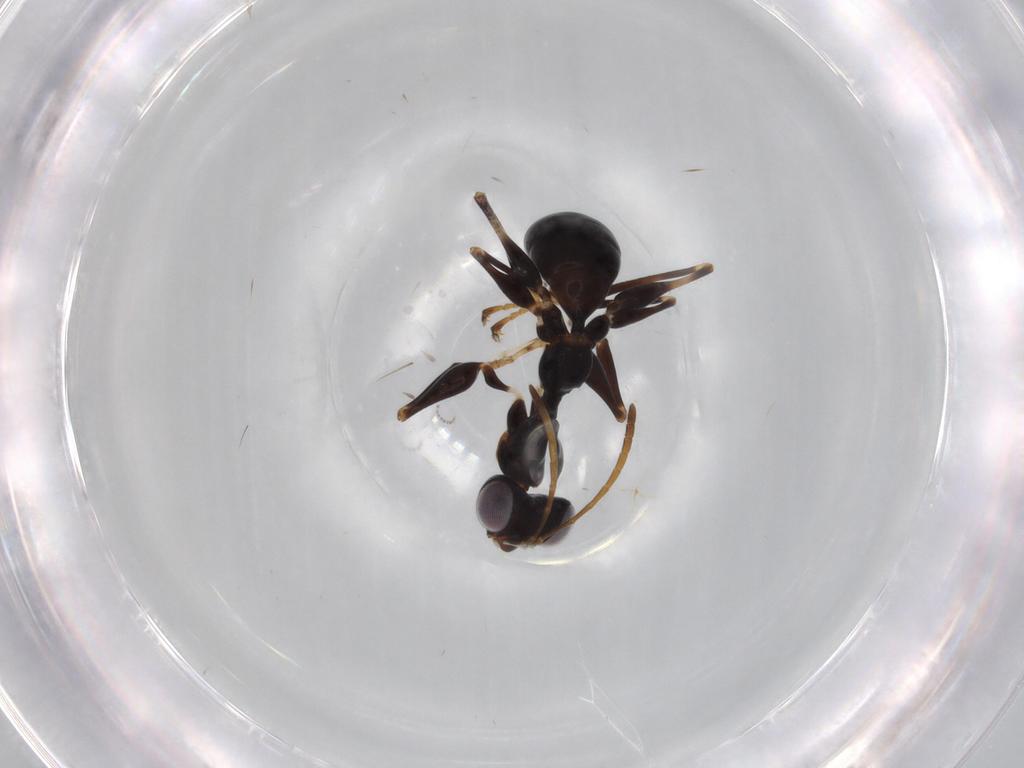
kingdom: Animalia
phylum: Arthropoda
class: Insecta
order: Hymenoptera
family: Dryinidae
